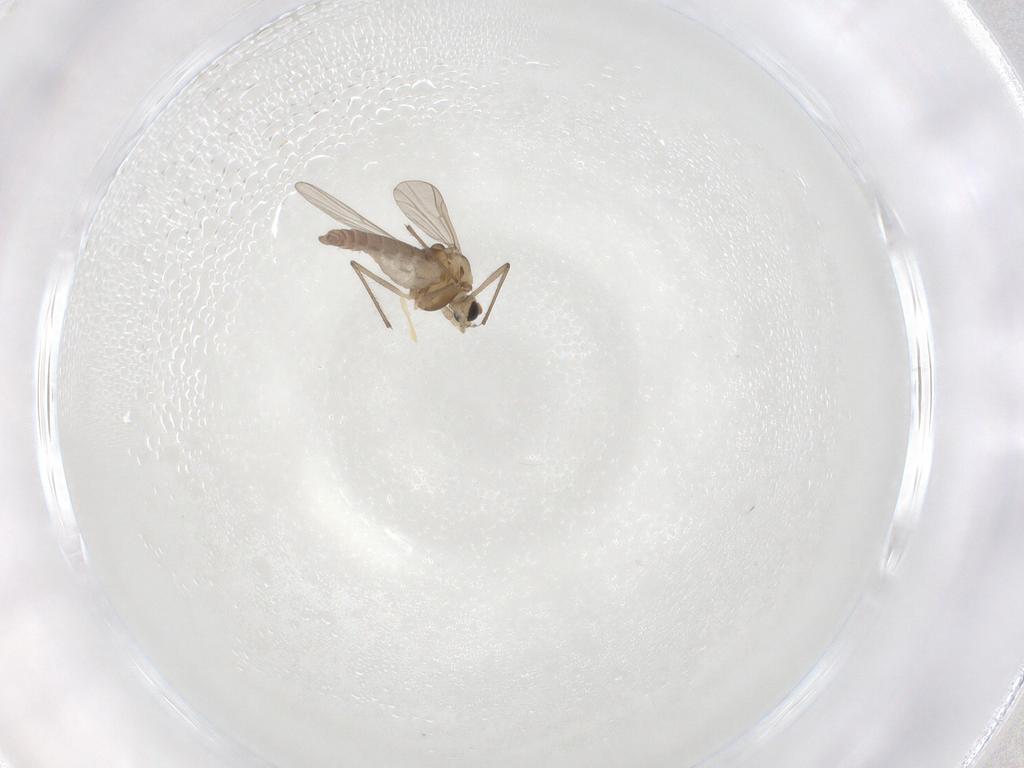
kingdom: Animalia
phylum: Arthropoda
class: Insecta
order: Diptera
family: Chironomidae
